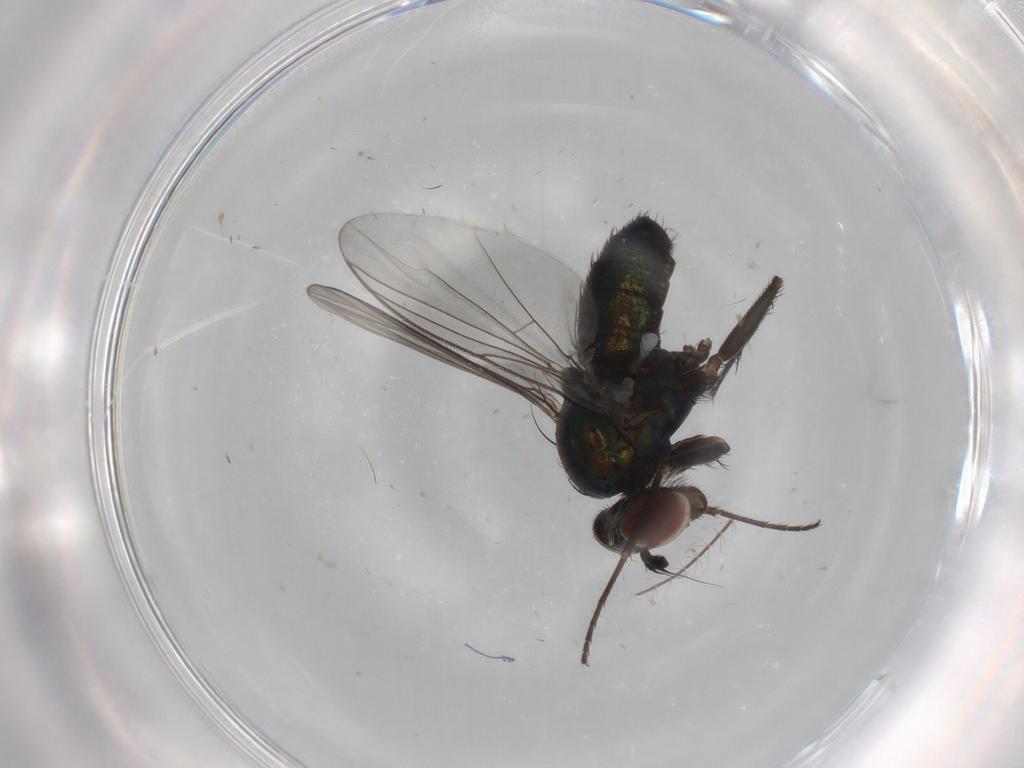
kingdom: Animalia
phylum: Arthropoda
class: Insecta
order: Diptera
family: Dolichopodidae
